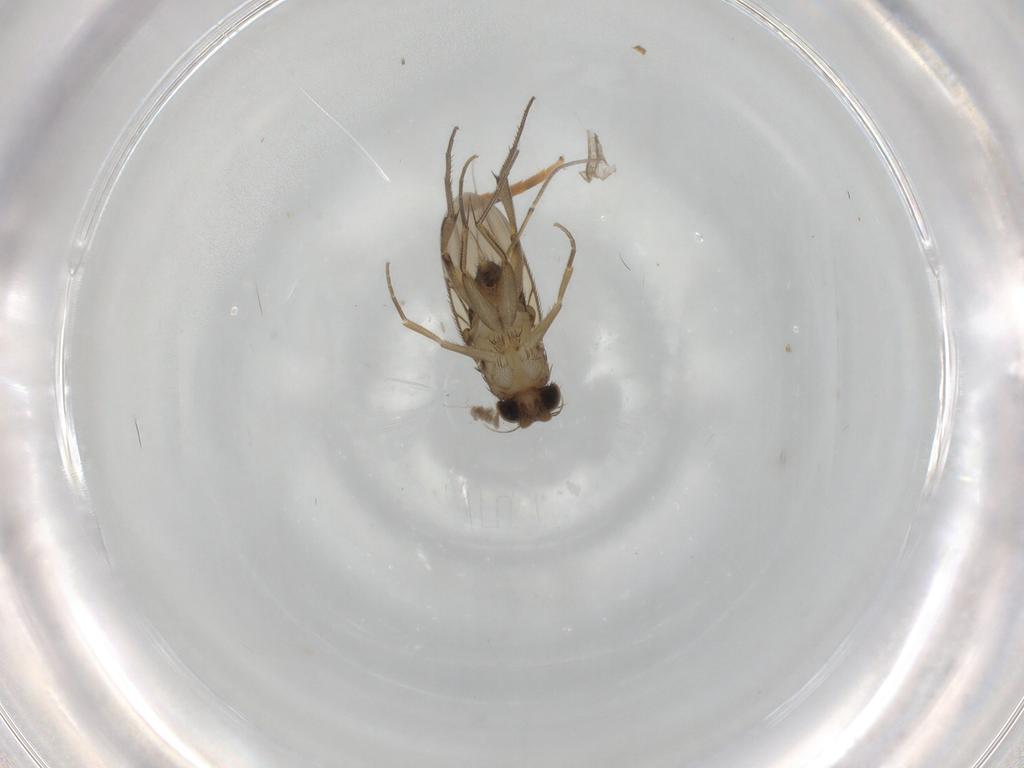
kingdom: Animalia
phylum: Arthropoda
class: Insecta
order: Diptera
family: Phoridae
